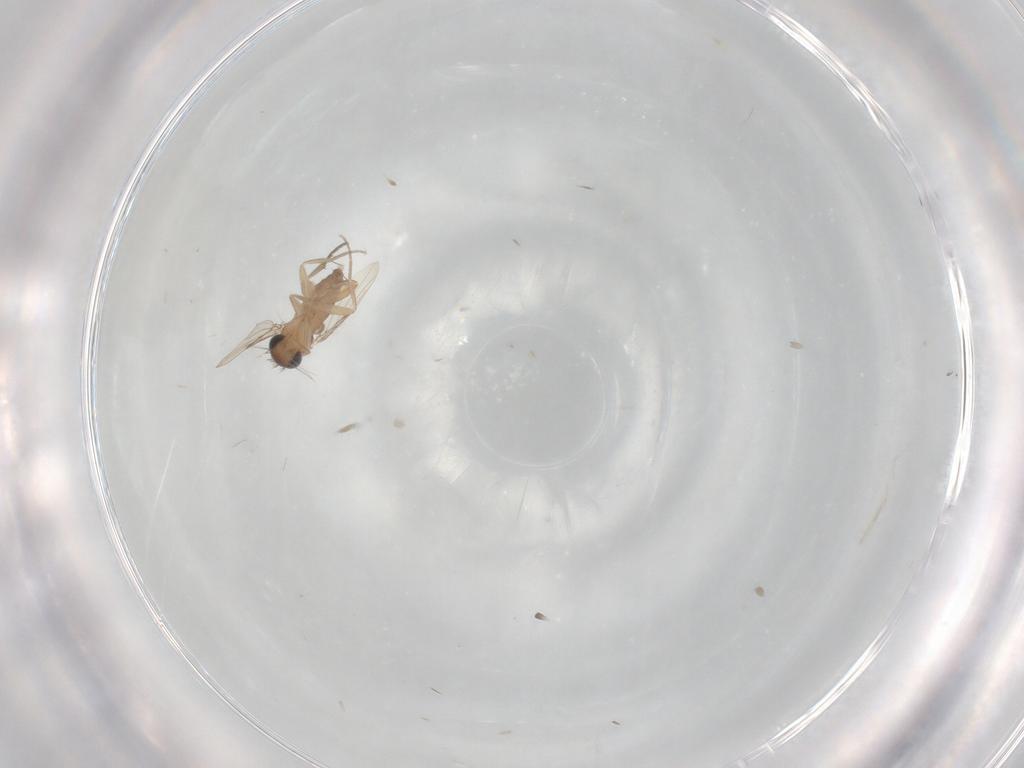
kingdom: Animalia
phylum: Arthropoda
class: Insecta
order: Diptera
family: Phoridae
